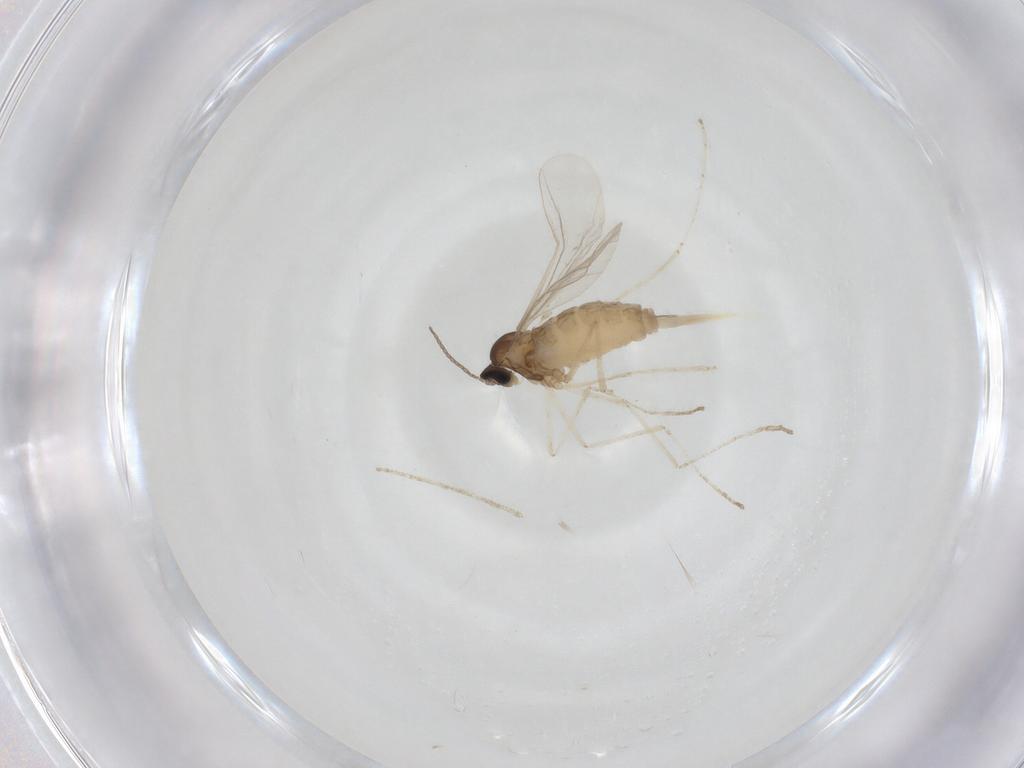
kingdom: Animalia
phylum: Arthropoda
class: Insecta
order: Diptera
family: Cecidomyiidae
